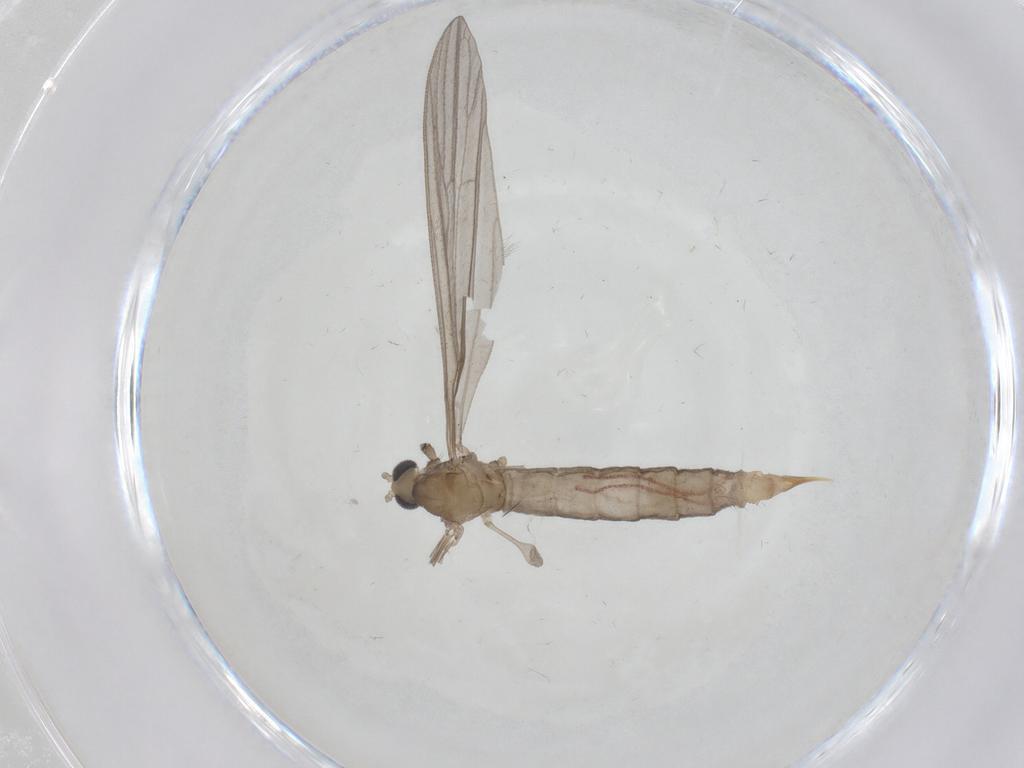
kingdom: Animalia
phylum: Arthropoda
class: Insecta
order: Diptera
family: Limoniidae
